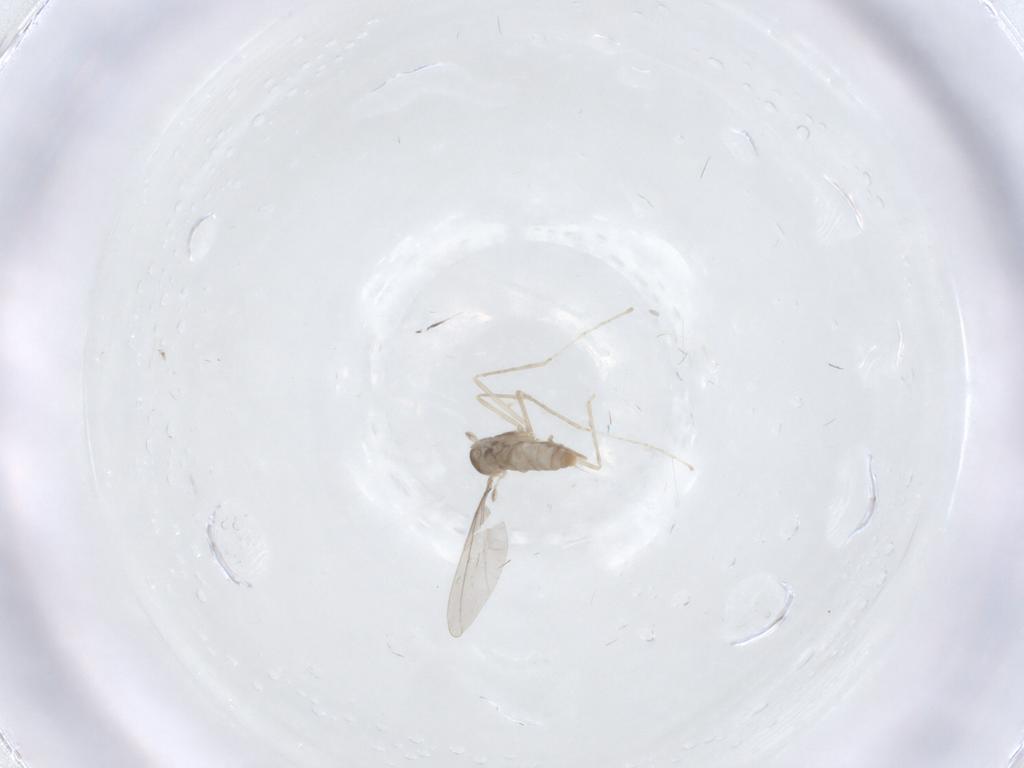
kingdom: Animalia
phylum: Arthropoda
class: Insecta
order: Diptera
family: Cecidomyiidae
